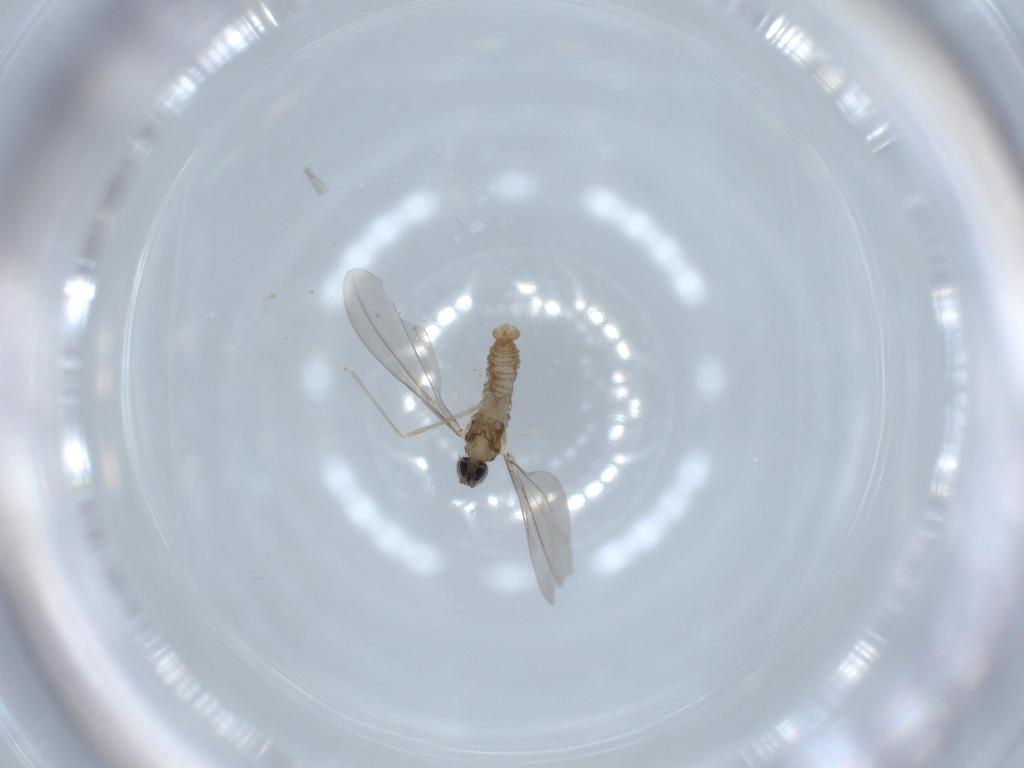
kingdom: Animalia
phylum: Arthropoda
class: Insecta
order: Diptera
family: Cecidomyiidae
